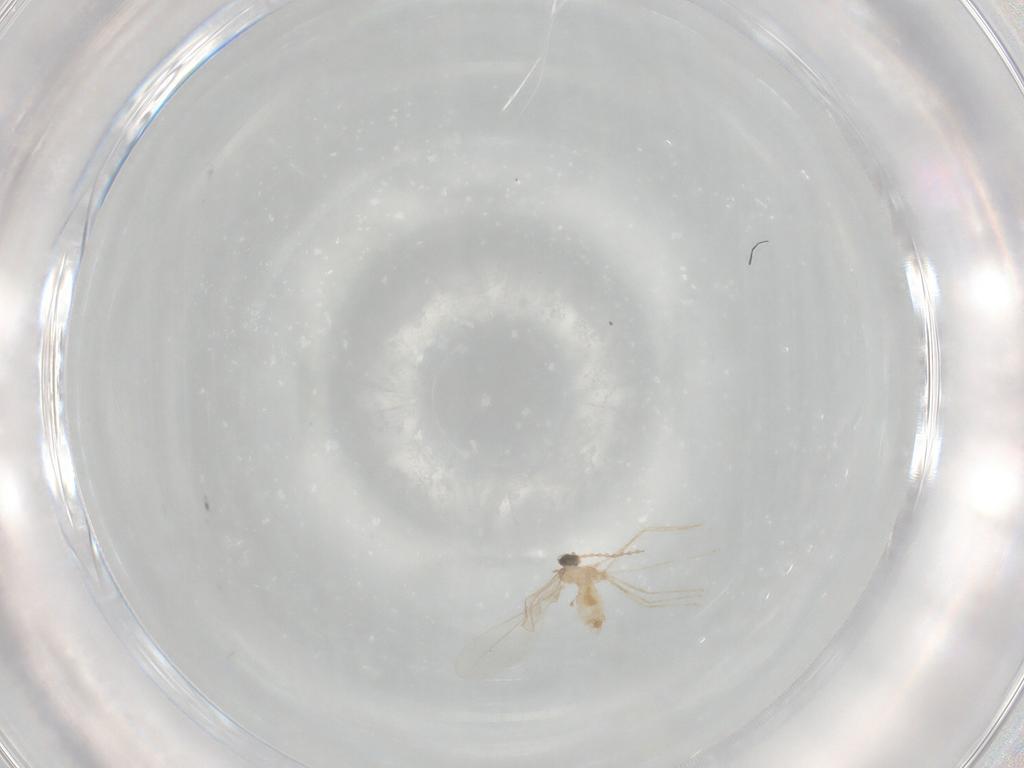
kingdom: Animalia
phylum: Arthropoda
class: Insecta
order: Diptera
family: Cecidomyiidae
